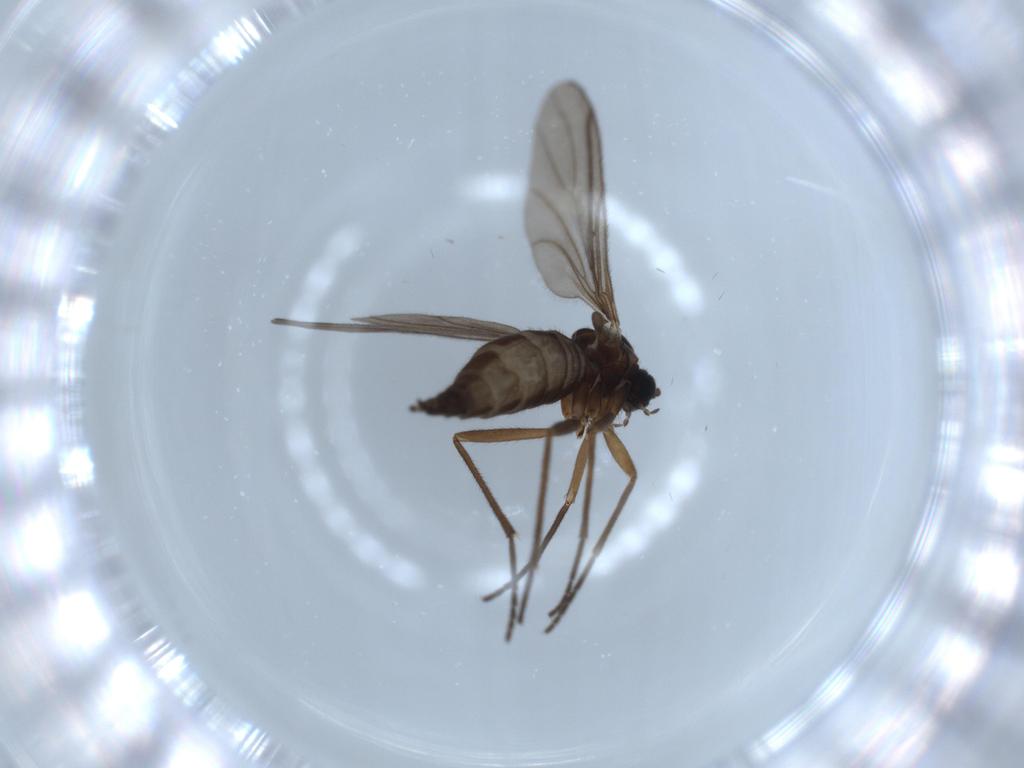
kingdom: Animalia
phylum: Arthropoda
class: Insecta
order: Diptera
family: Sciaridae
